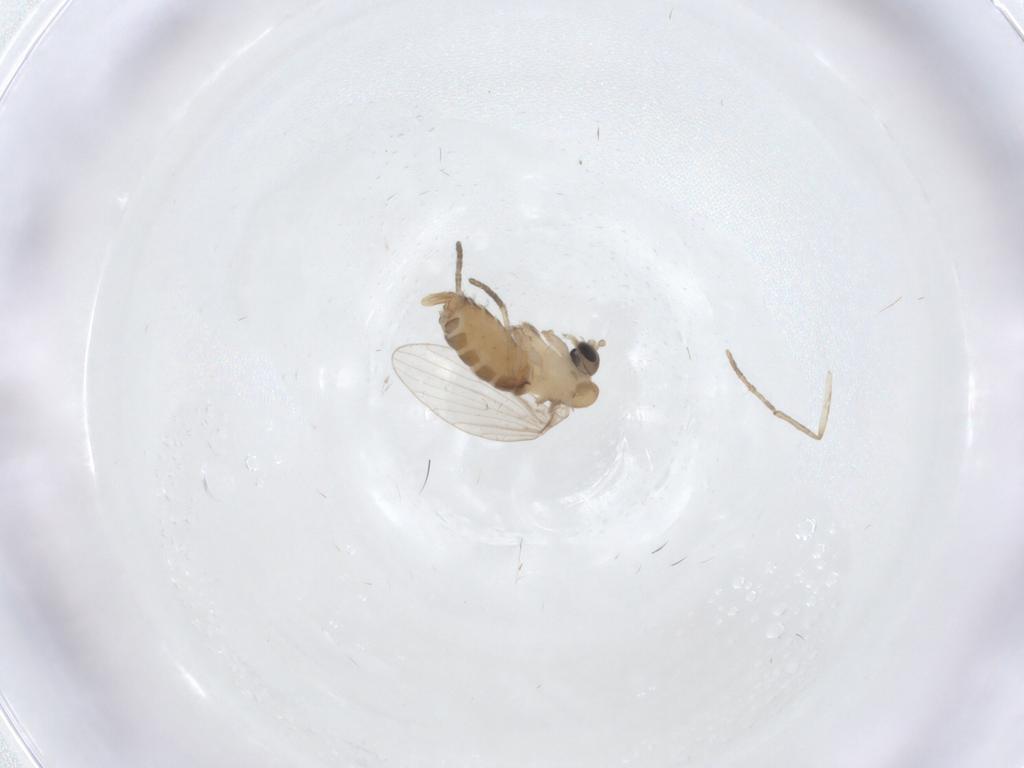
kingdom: Animalia
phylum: Arthropoda
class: Insecta
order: Diptera
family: Psychodidae
